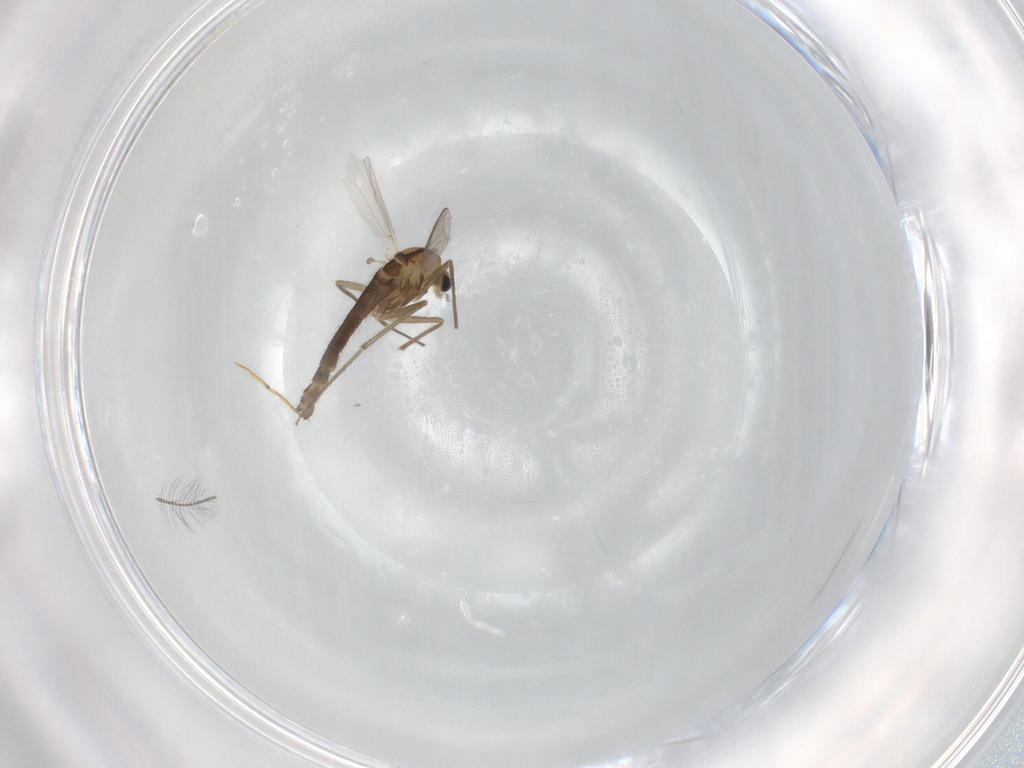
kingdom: Animalia
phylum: Arthropoda
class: Insecta
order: Diptera
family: Chironomidae
